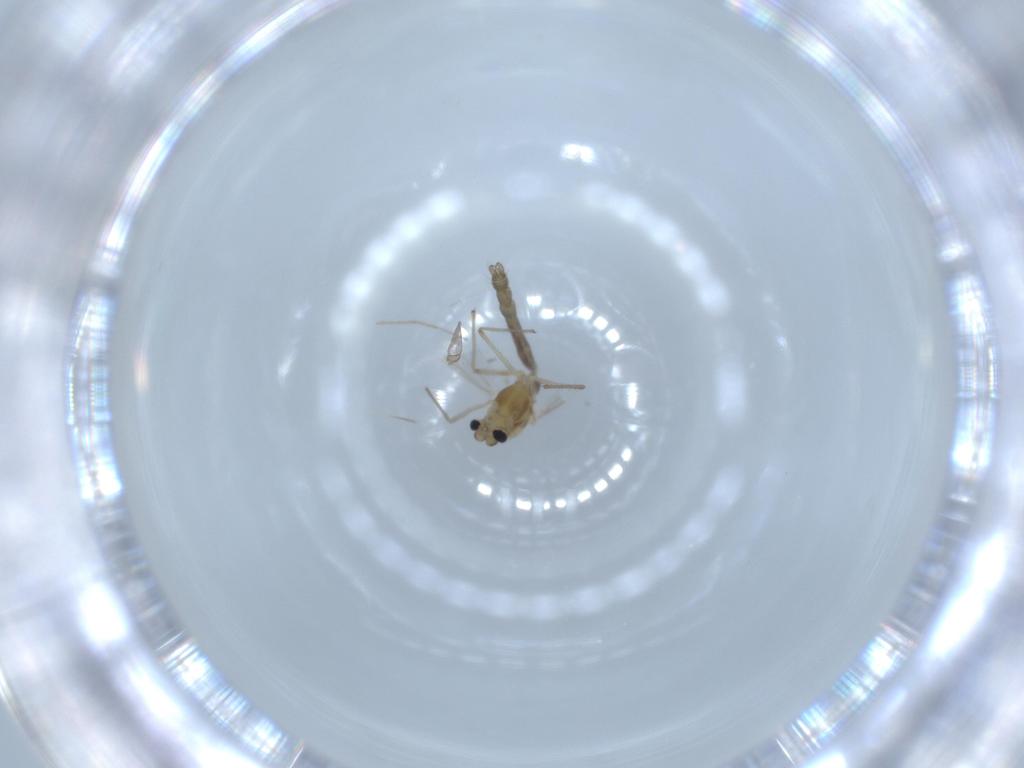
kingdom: Animalia
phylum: Arthropoda
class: Insecta
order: Diptera
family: Chironomidae
